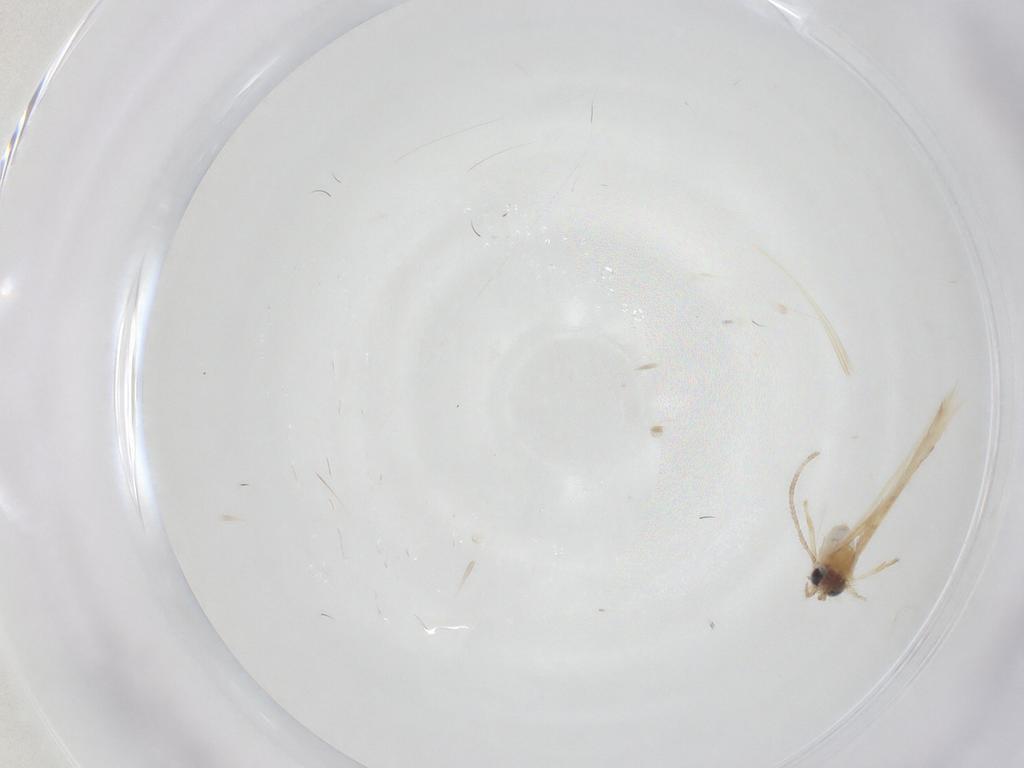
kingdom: Animalia
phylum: Arthropoda
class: Insecta
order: Lepidoptera
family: Nepticulidae
